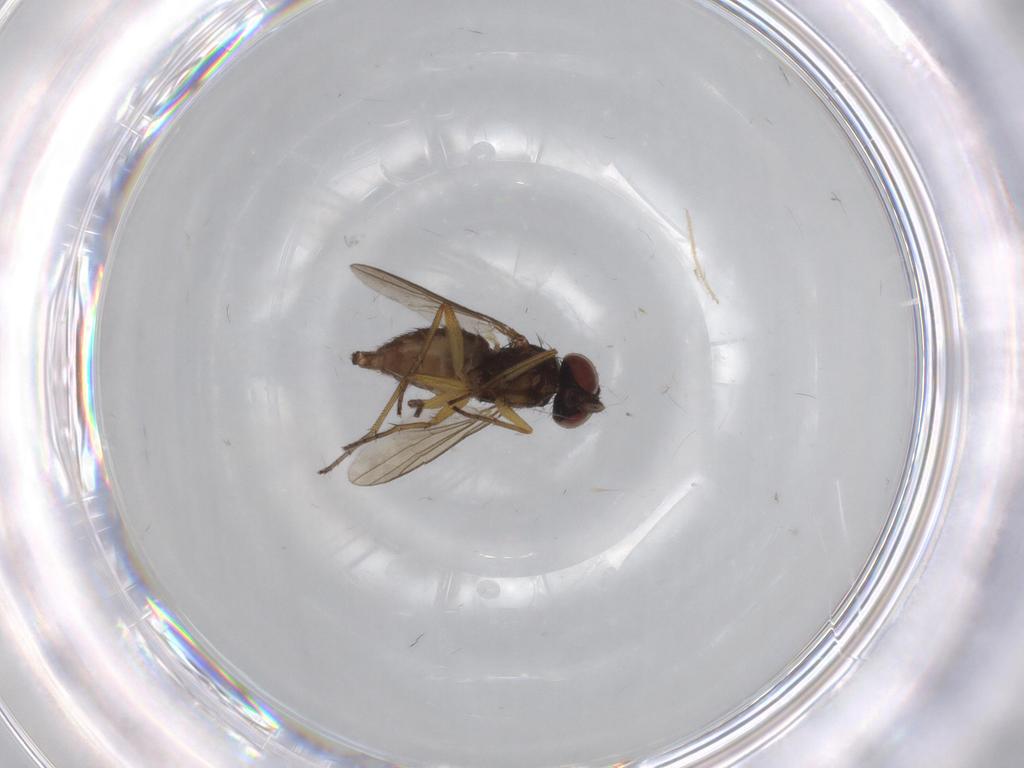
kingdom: Animalia
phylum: Arthropoda
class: Insecta
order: Diptera
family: Dolichopodidae
